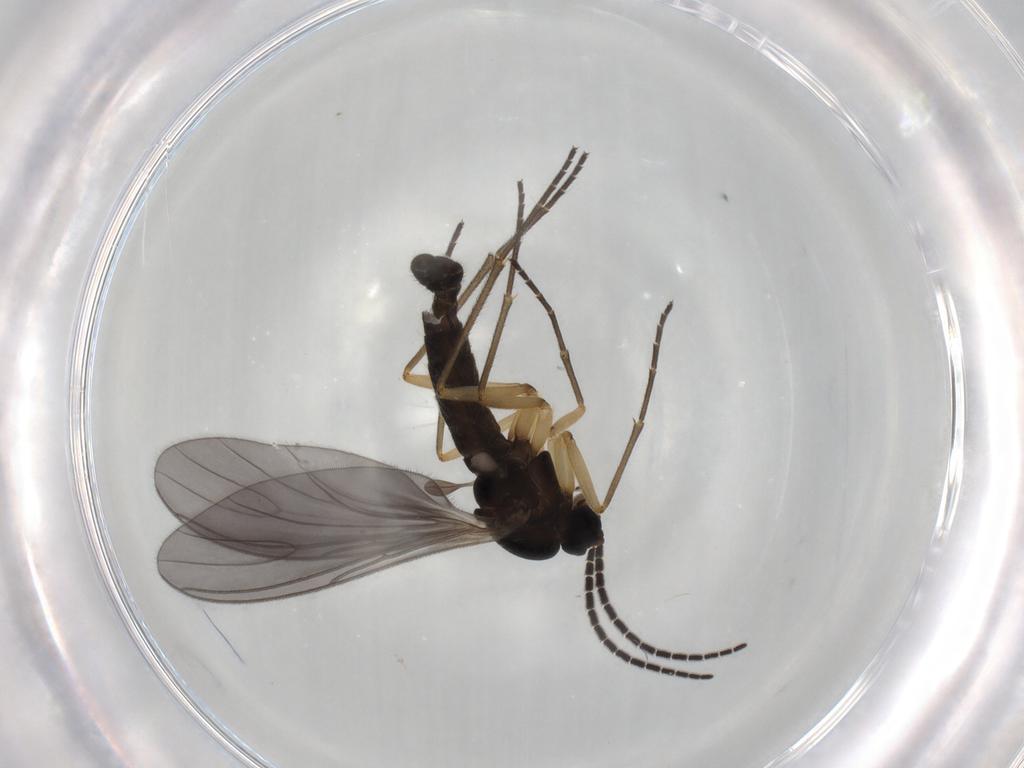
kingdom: Animalia
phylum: Arthropoda
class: Insecta
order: Diptera
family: Sciaridae
